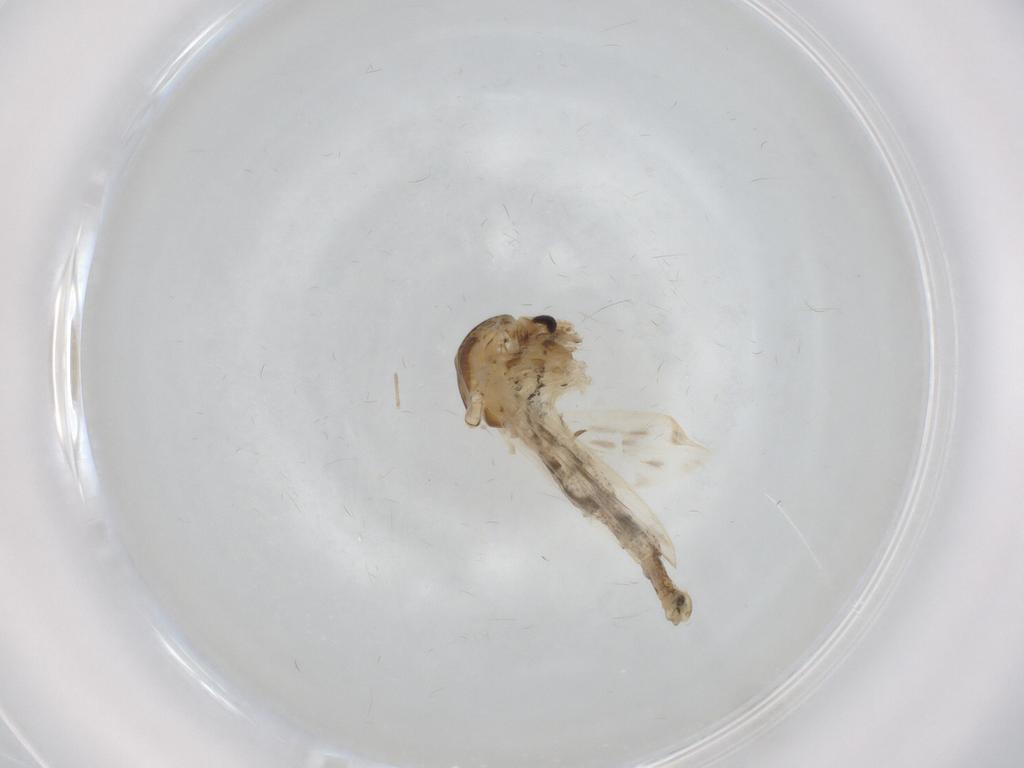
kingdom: Animalia
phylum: Arthropoda
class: Insecta
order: Diptera
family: Chaoboridae
